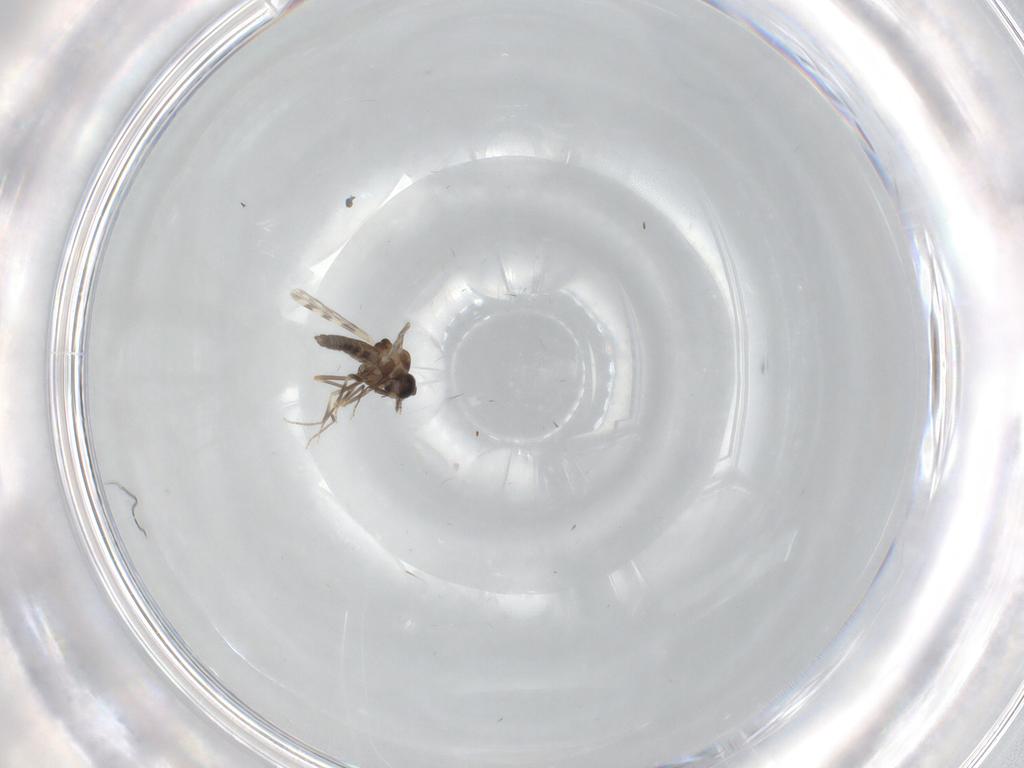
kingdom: Animalia
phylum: Arthropoda
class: Insecta
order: Diptera
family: Ceratopogonidae
